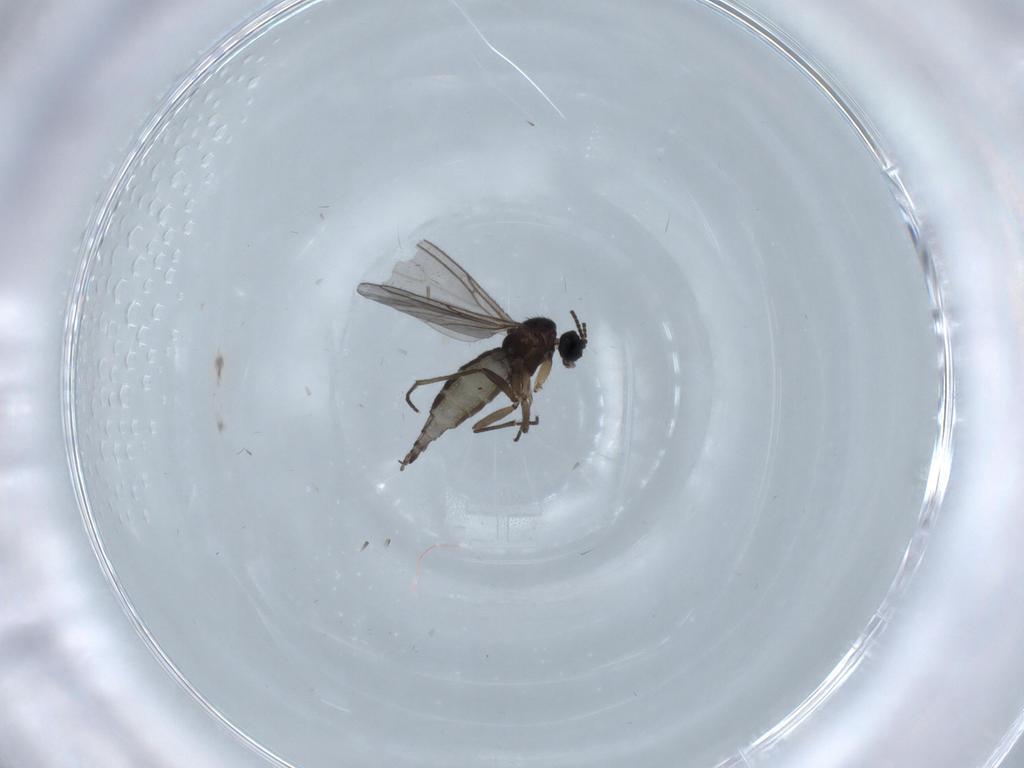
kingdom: Animalia
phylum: Arthropoda
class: Insecta
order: Diptera
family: Sciaridae
